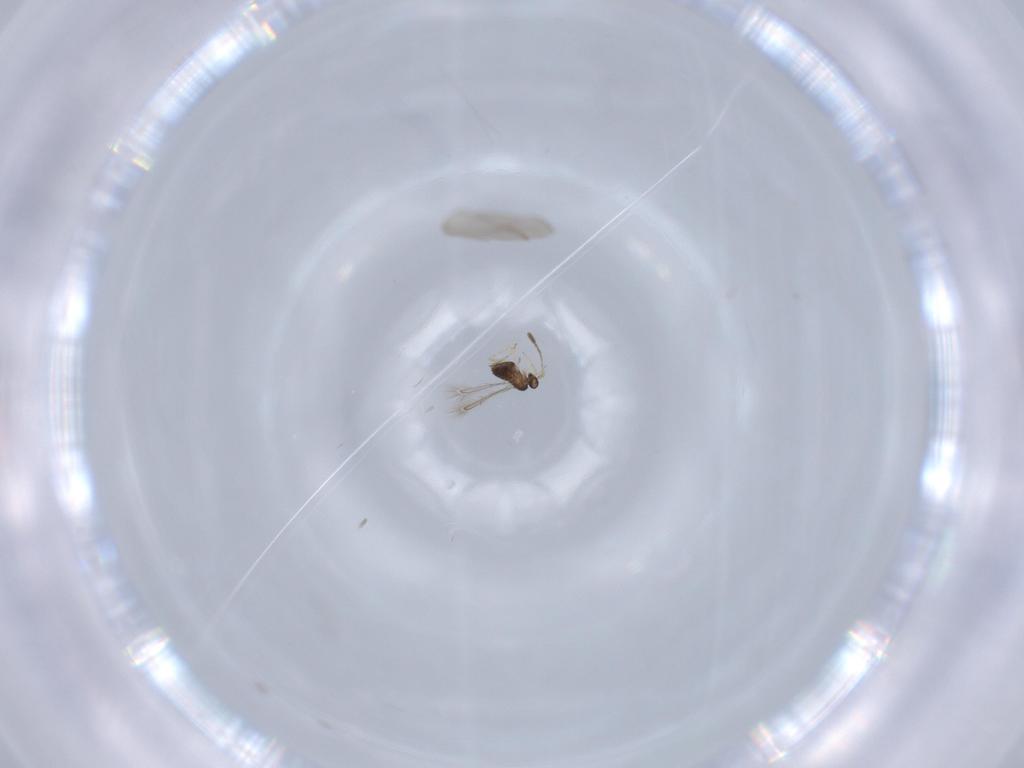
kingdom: Animalia
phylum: Arthropoda
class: Insecta
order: Hymenoptera
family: Ichneumonidae
